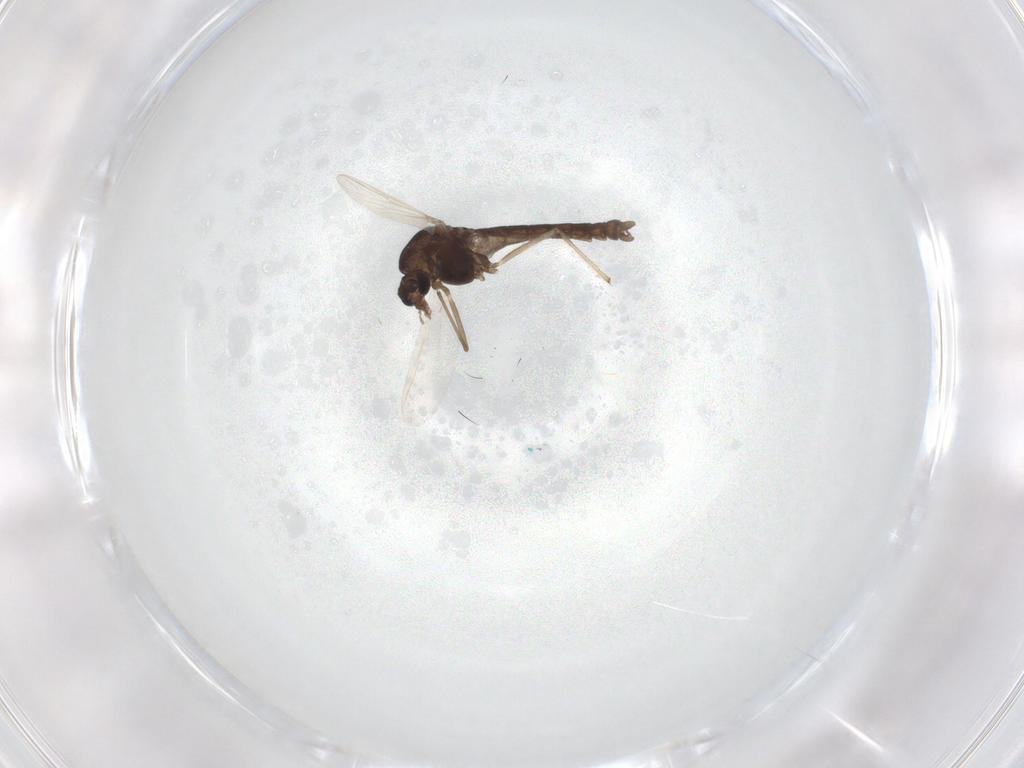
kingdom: Animalia
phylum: Arthropoda
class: Insecta
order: Diptera
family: Chironomidae
